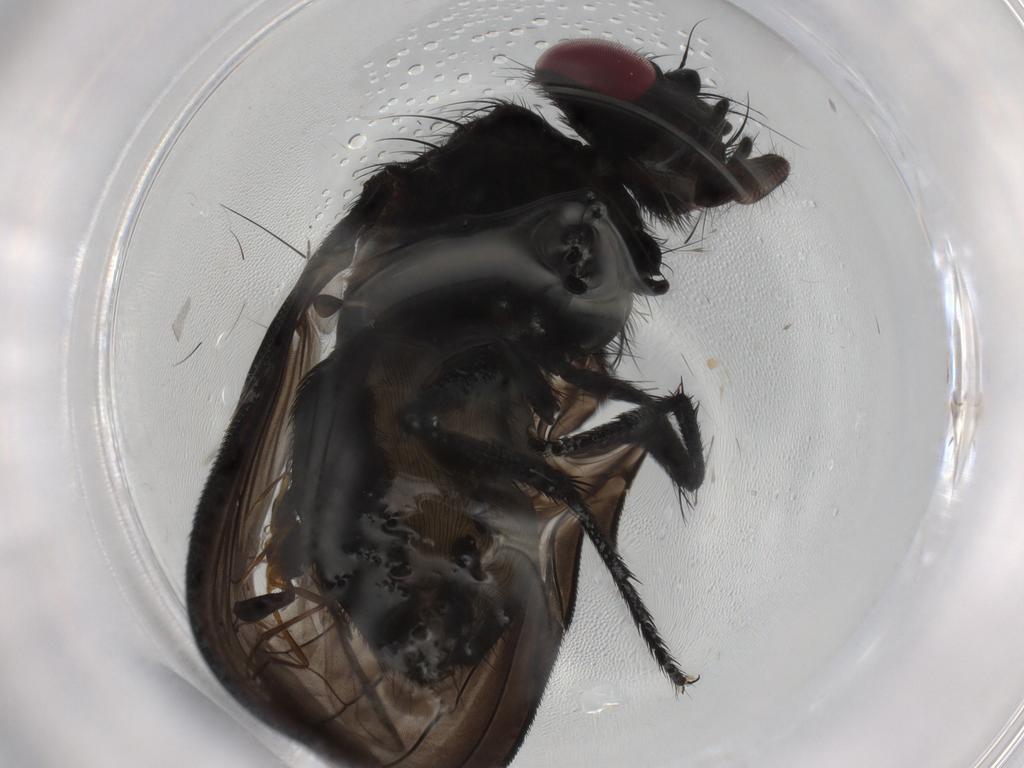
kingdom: Animalia
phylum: Arthropoda
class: Insecta
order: Diptera
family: Chironomidae
